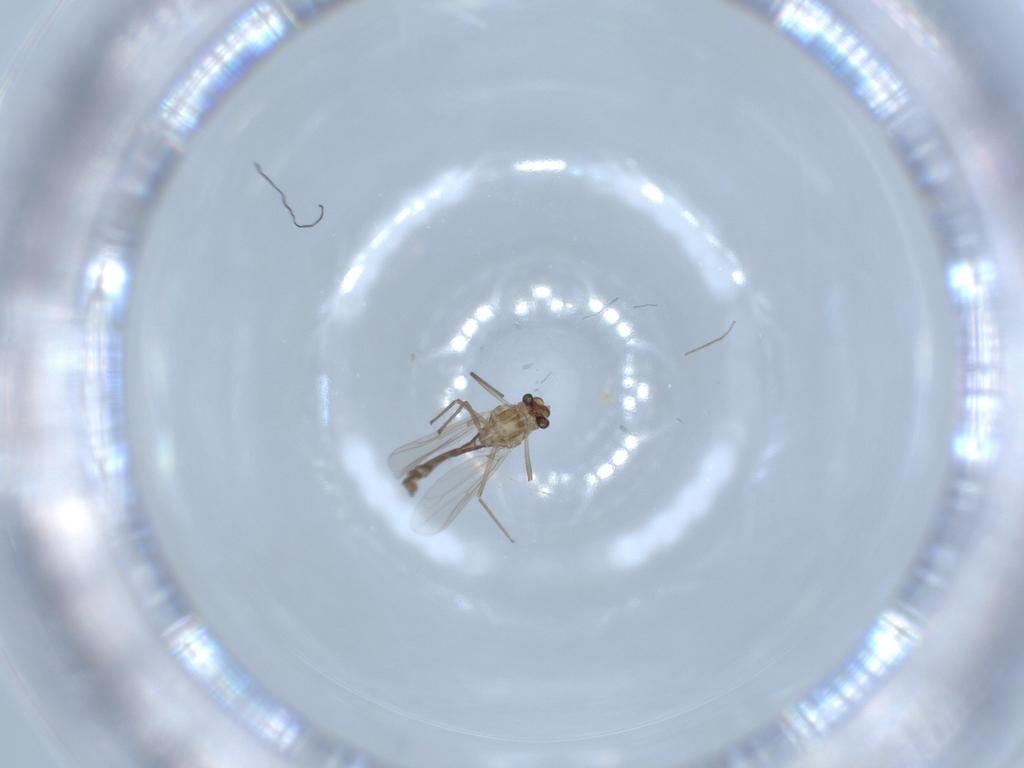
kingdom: Animalia
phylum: Arthropoda
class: Insecta
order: Diptera
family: Chironomidae
